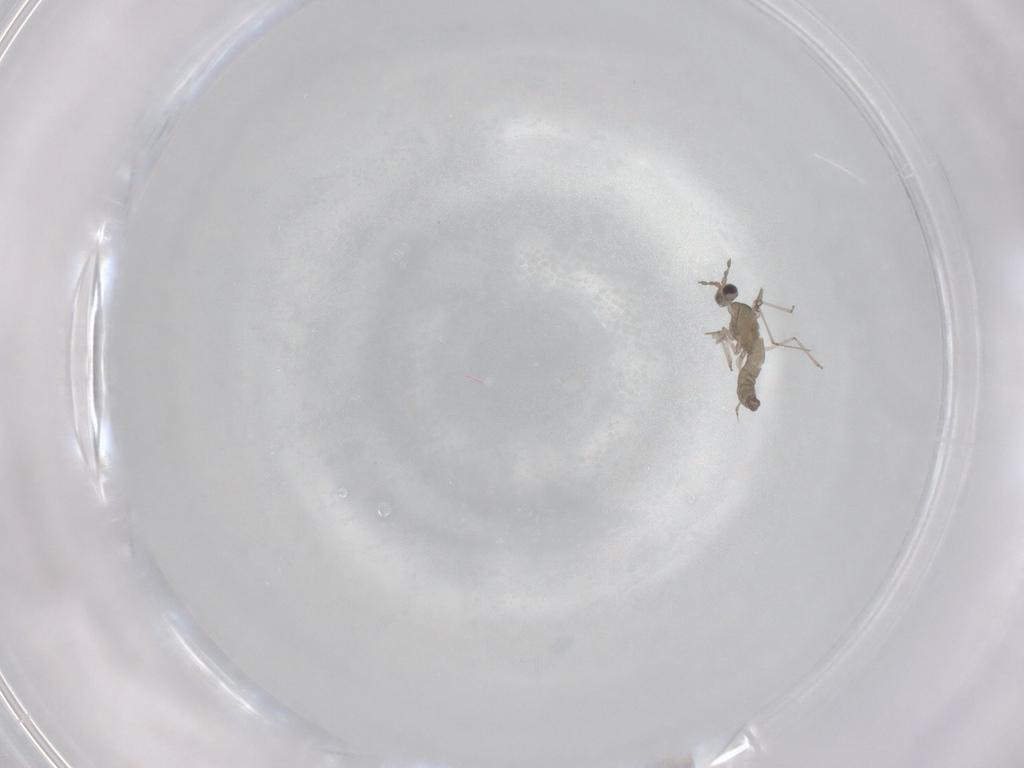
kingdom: Animalia
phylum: Arthropoda
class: Insecta
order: Diptera
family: Cecidomyiidae
